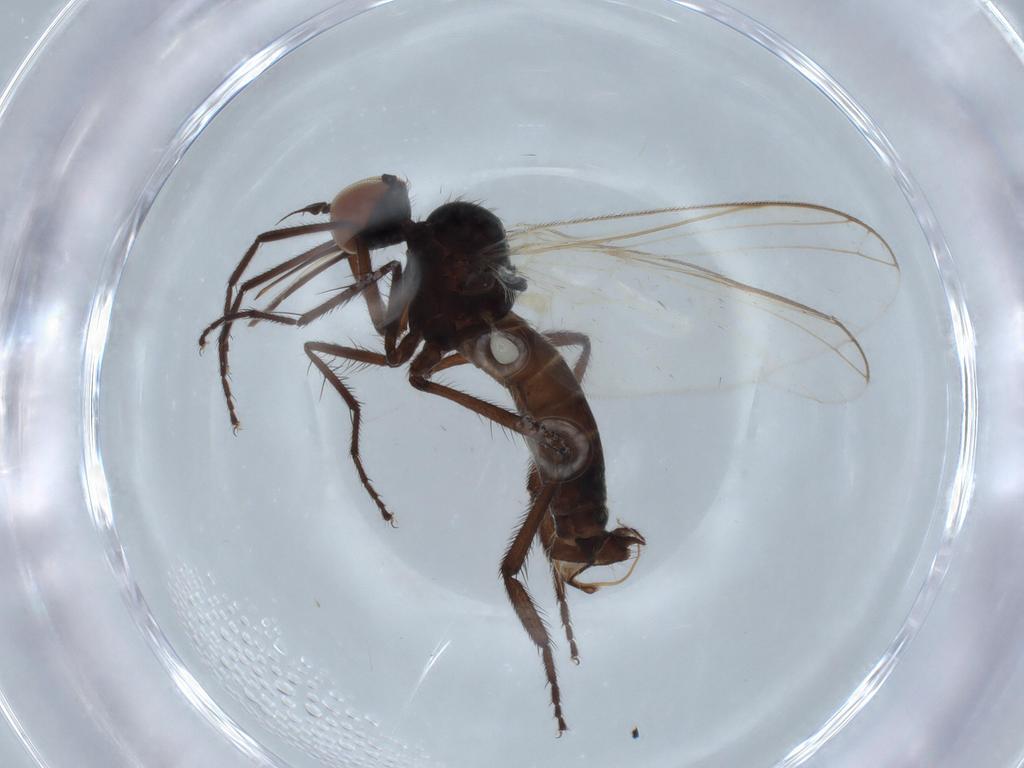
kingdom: Animalia
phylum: Arthropoda
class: Insecta
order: Diptera
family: Empididae
